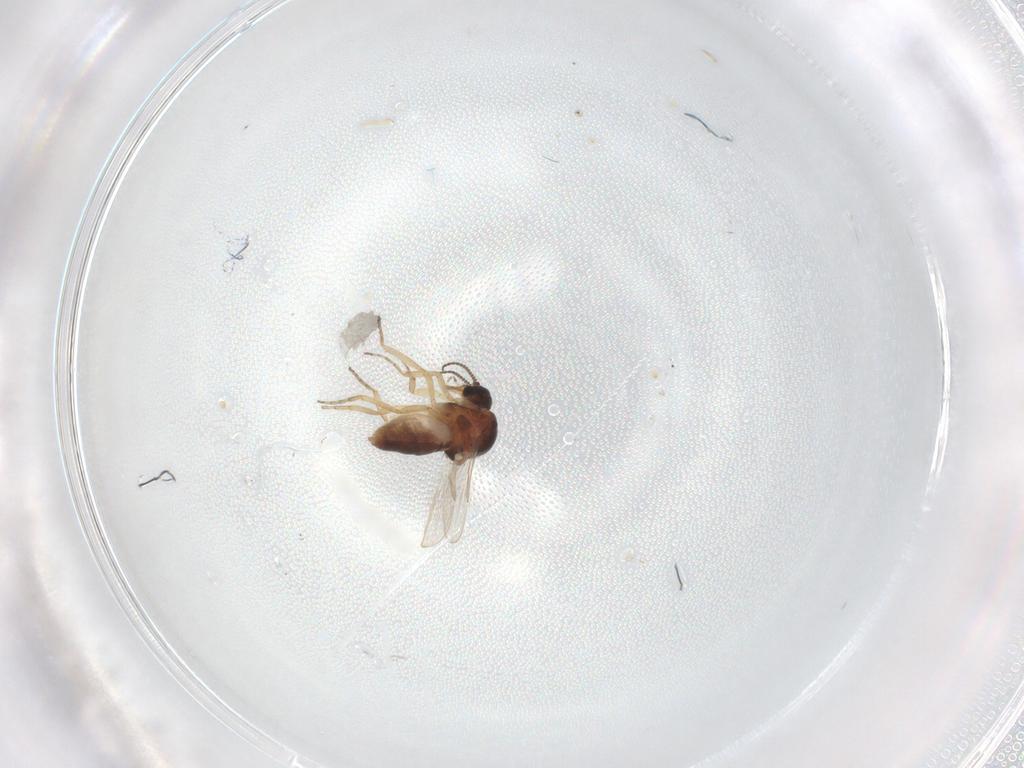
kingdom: Animalia
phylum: Arthropoda
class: Insecta
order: Diptera
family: Ceratopogonidae
